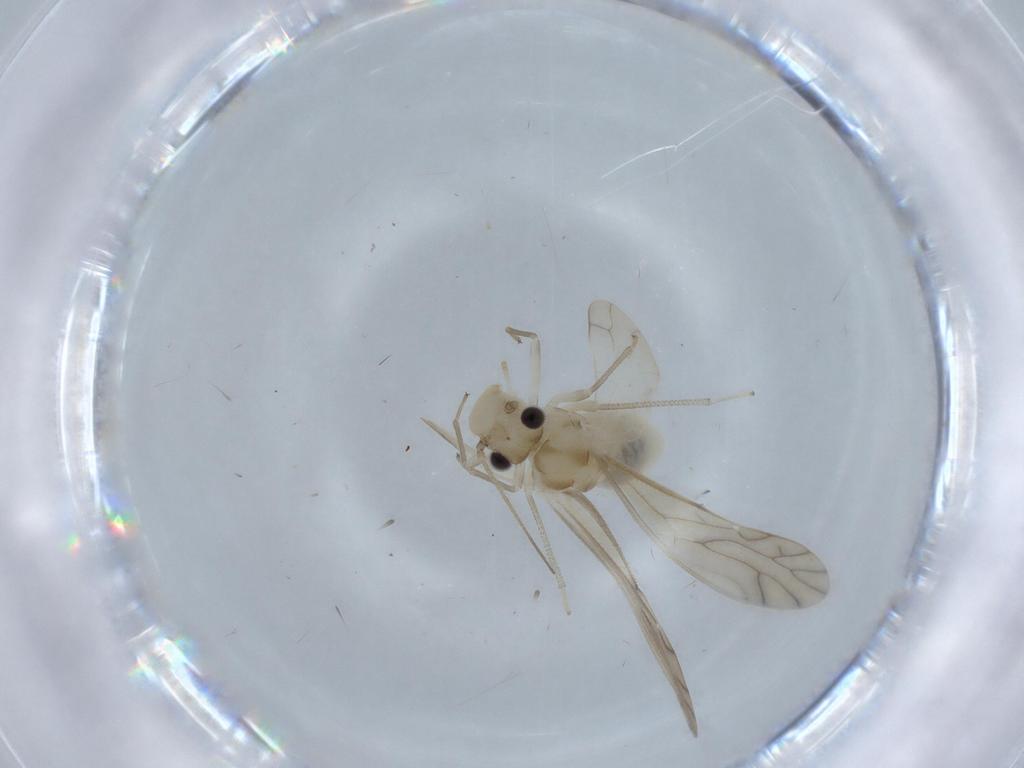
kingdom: Animalia
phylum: Arthropoda
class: Insecta
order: Psocodea
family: Caeciliusidae
